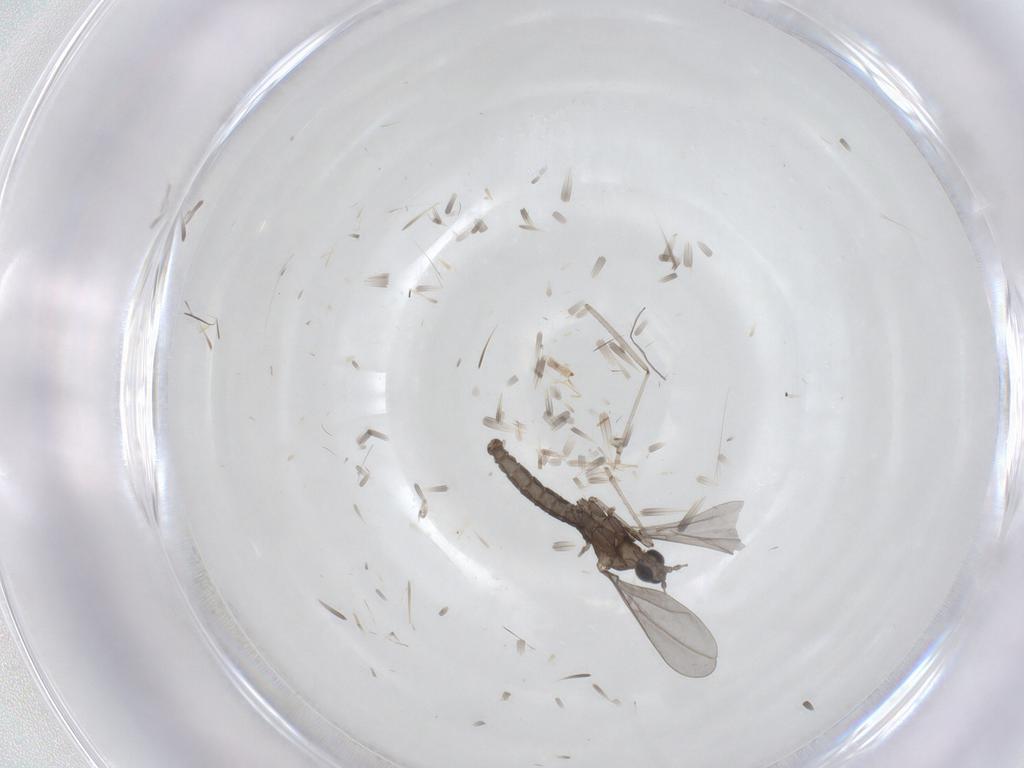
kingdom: Animalia
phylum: Arthropoda
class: Insecta
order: Diptera
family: Cecidomyiidae
